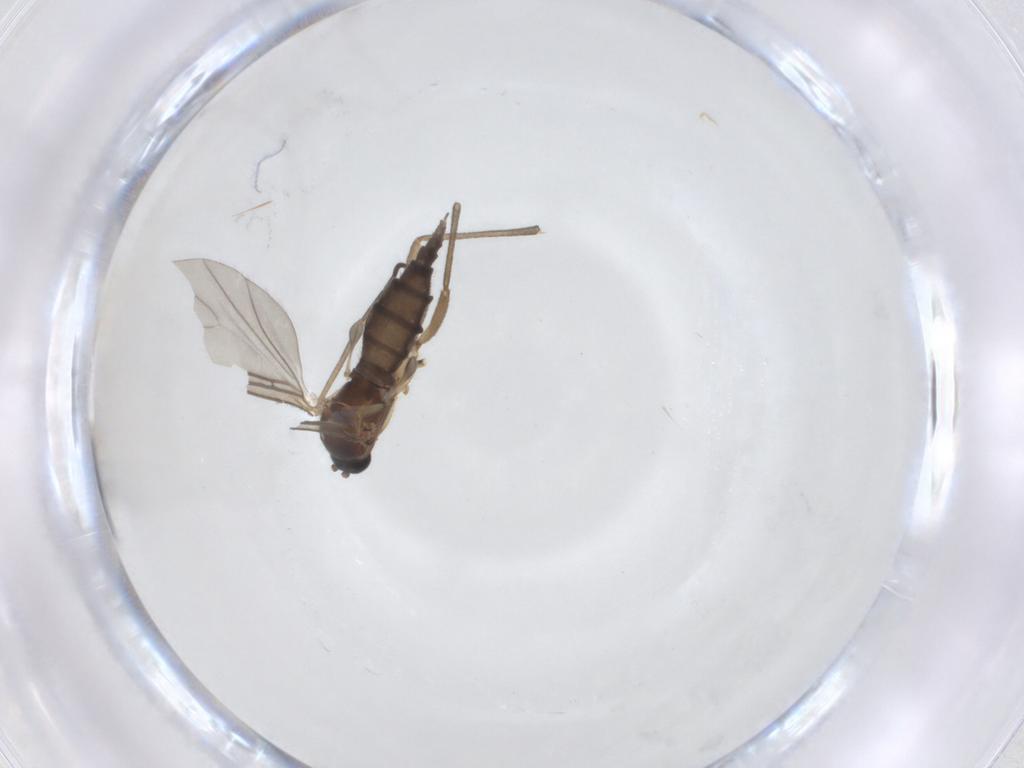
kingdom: Animalia
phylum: Arthropoda
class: Insecta
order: Diptera
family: Sciaridae
